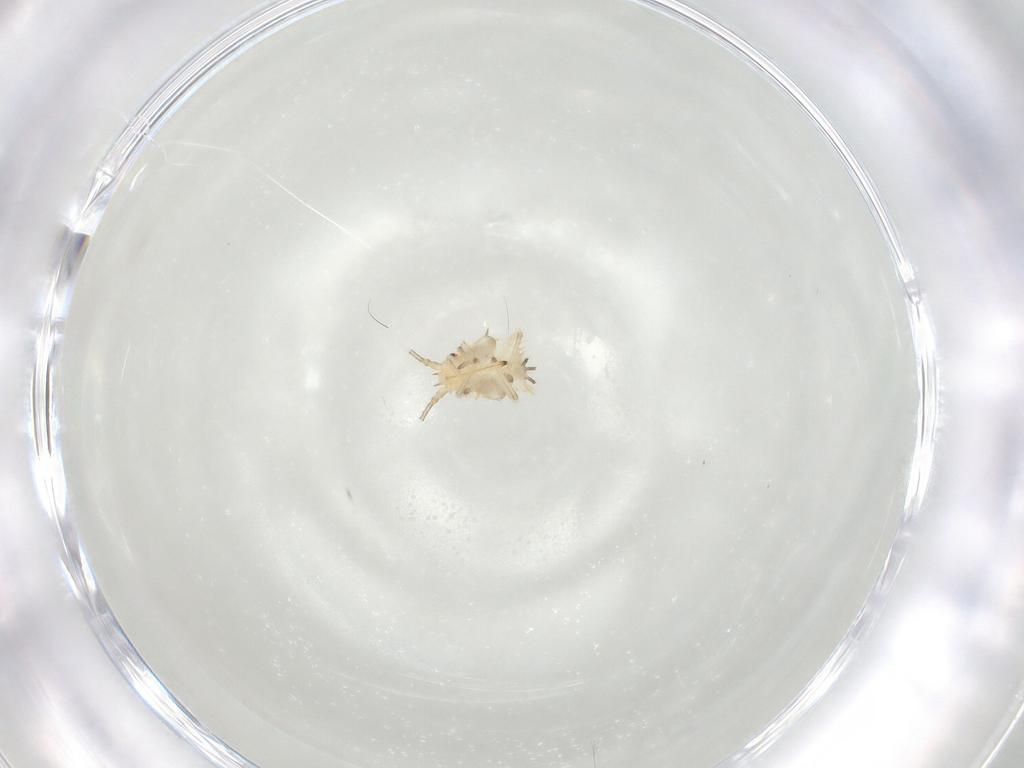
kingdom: Animalia
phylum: Arthropoda
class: Insecta
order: Hemiptera
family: Tingidae
